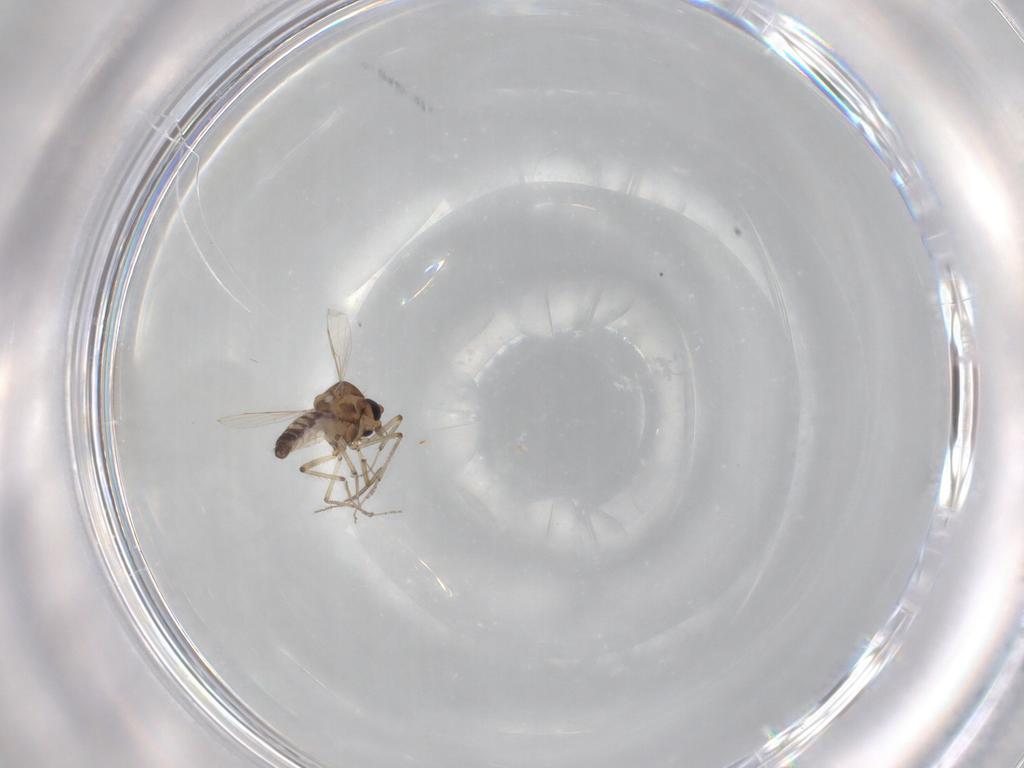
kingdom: Animalia
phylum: Arthropoda
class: Insecta
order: Diptera
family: Ceratopogonidae
